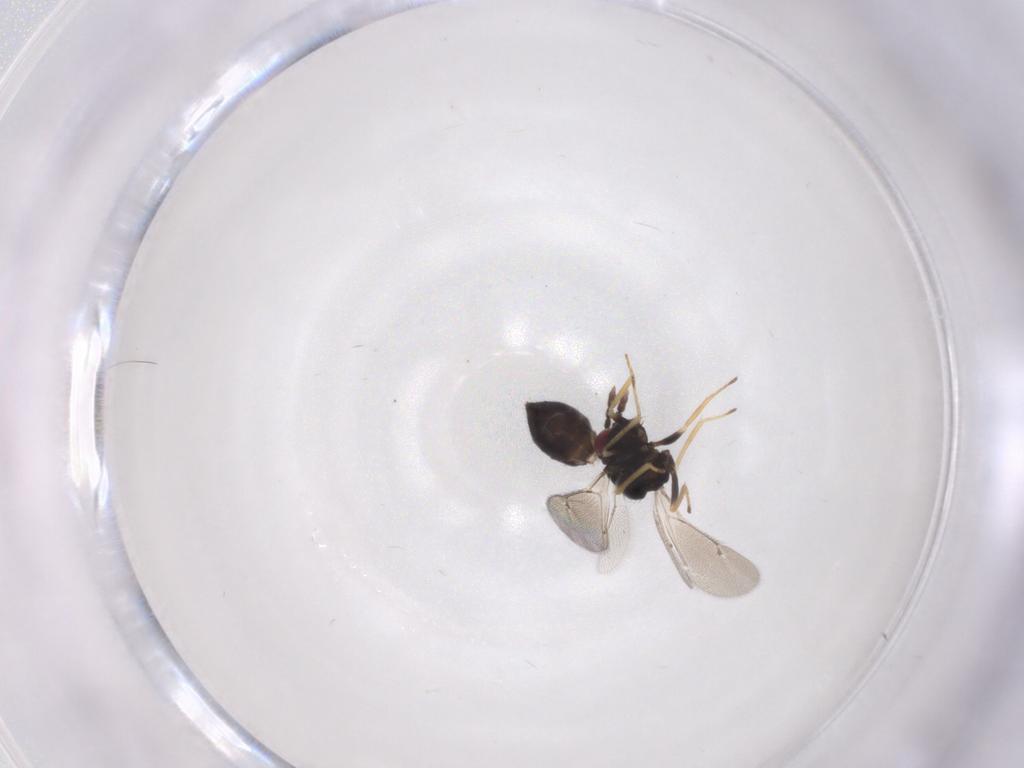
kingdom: Animalia
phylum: Arthropoda
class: Insecta
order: Hymenoptera
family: Eulophidae
